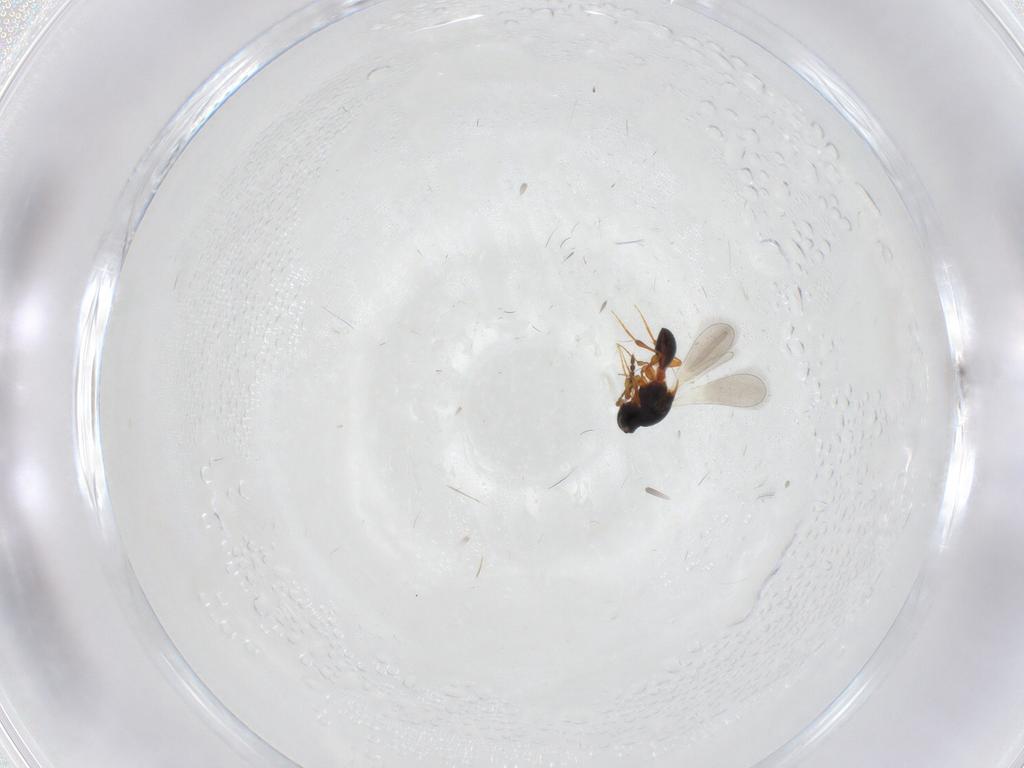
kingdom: Animalia
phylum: Arthropoda
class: Insecta
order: Hymenoptera
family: Trichogrammatidae
